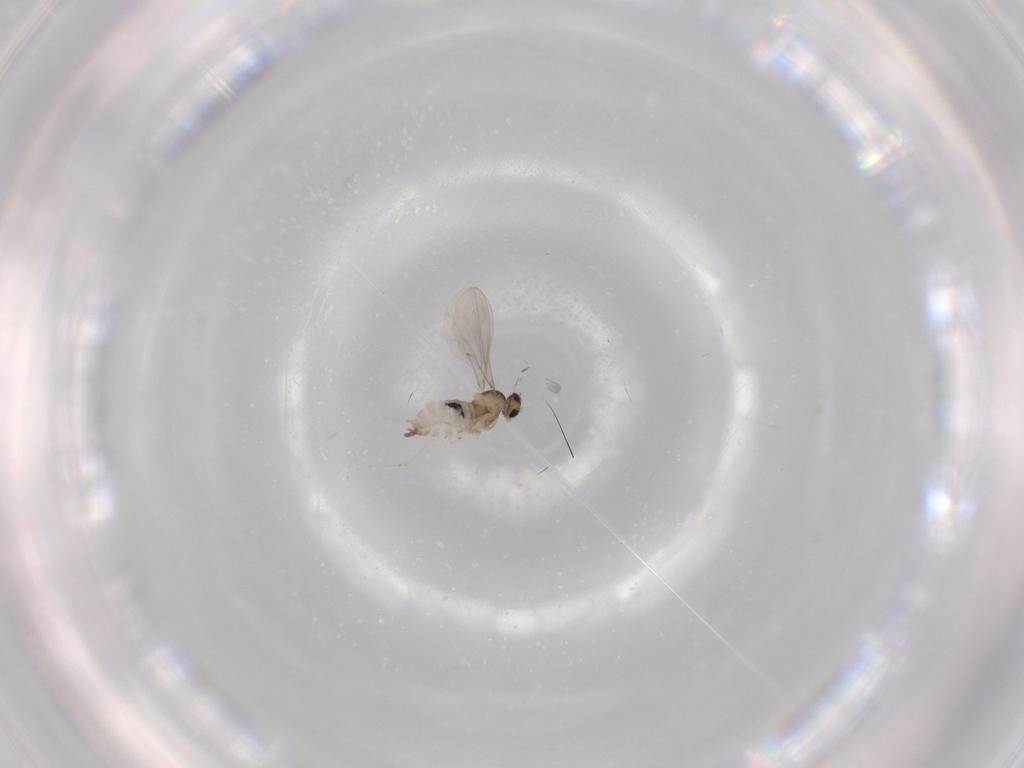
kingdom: Animalia
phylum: Arthropoda
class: Insecta
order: Diptera
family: Cecidomyiidae
